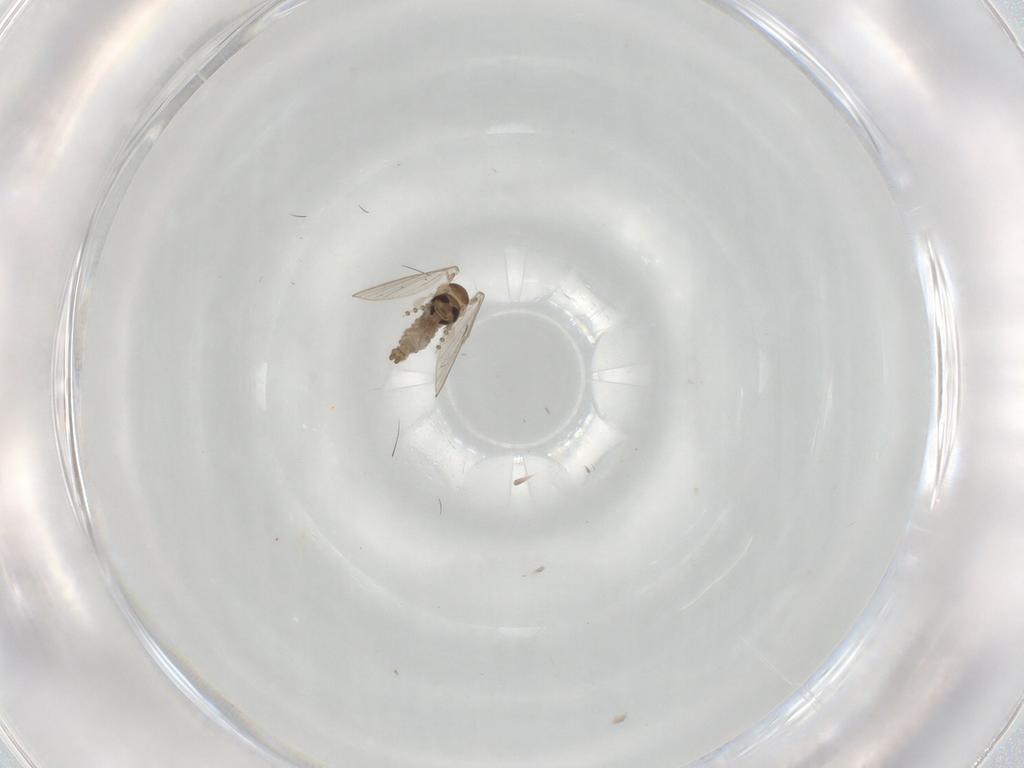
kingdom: Animalia
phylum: Arthropoda
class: Insecta
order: Diptera
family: Psychodidae
